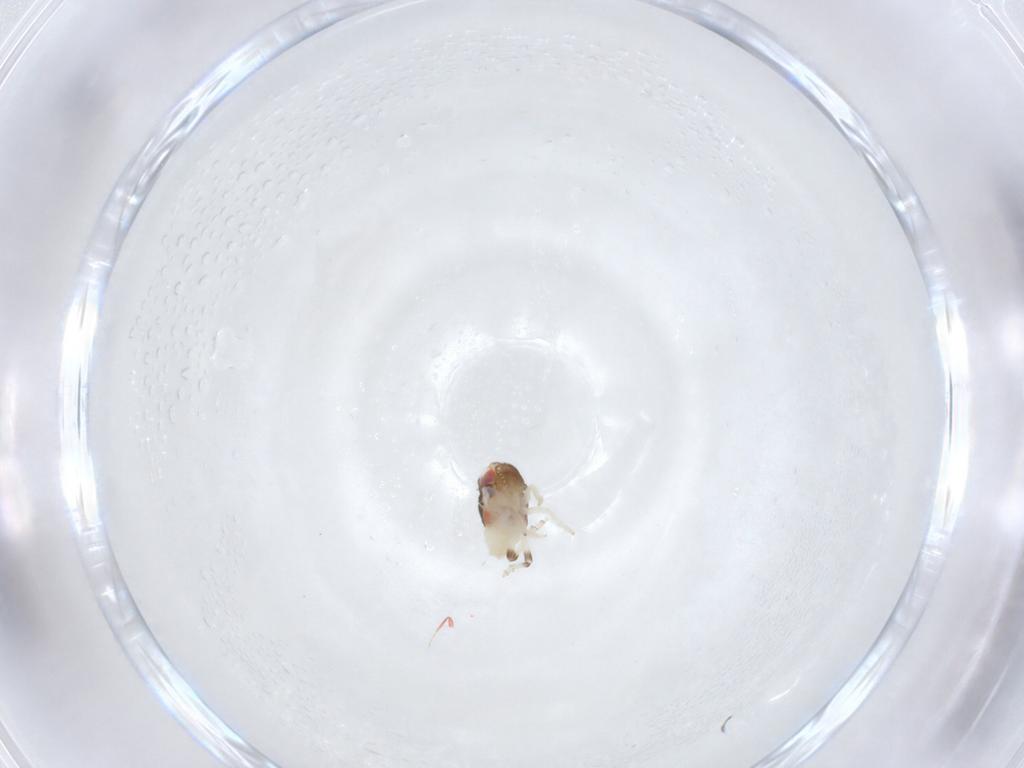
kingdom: Animalia
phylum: Arthropoda
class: Insecta
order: Hemiptera
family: Nogodinidae
